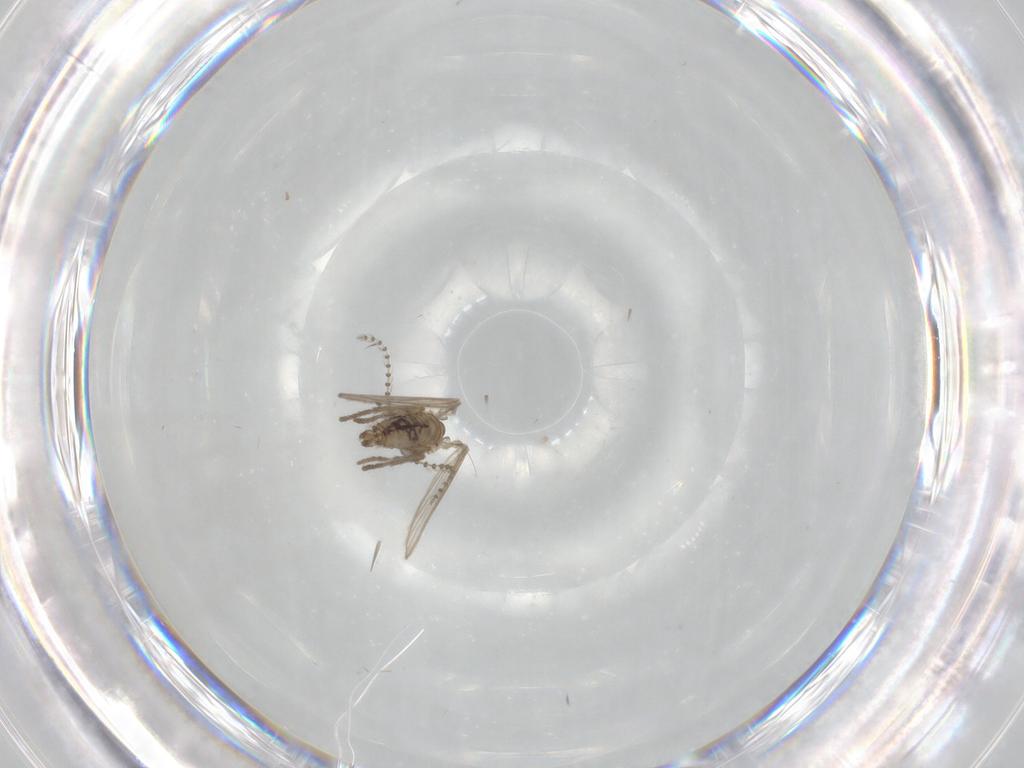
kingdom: Animalia
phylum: Arthropoda
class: Insecta
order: Diptera
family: Psychodidae
